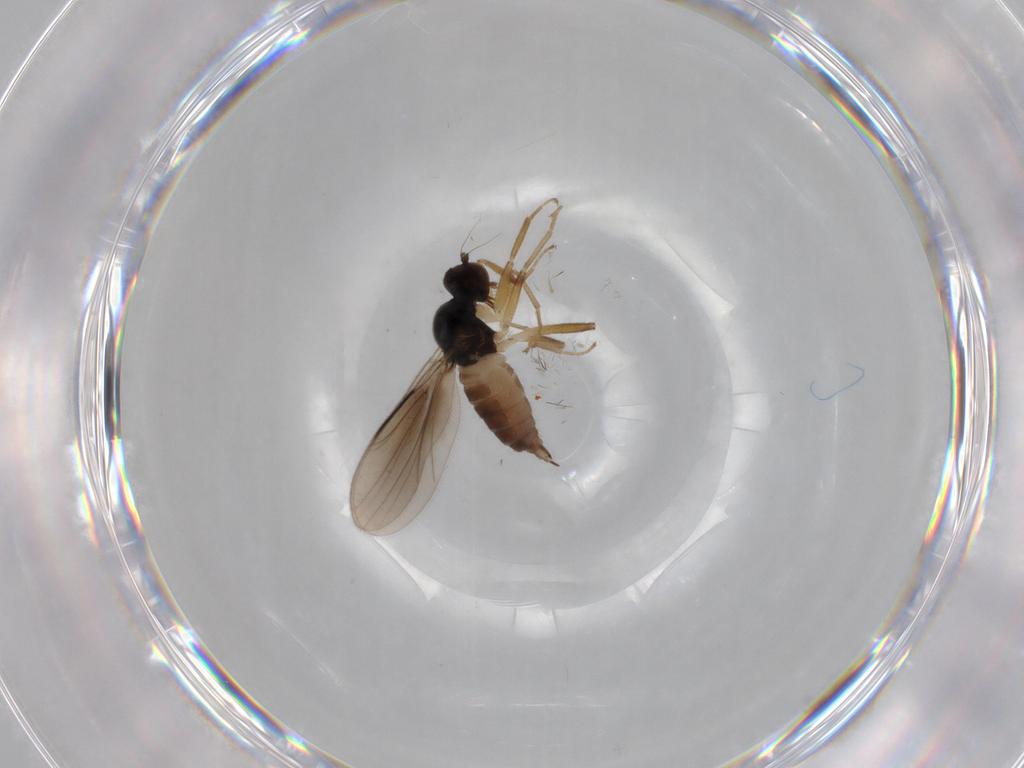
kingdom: Animalia
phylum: Arthropoda
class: Insecta
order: Diptera
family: Hybotidae
